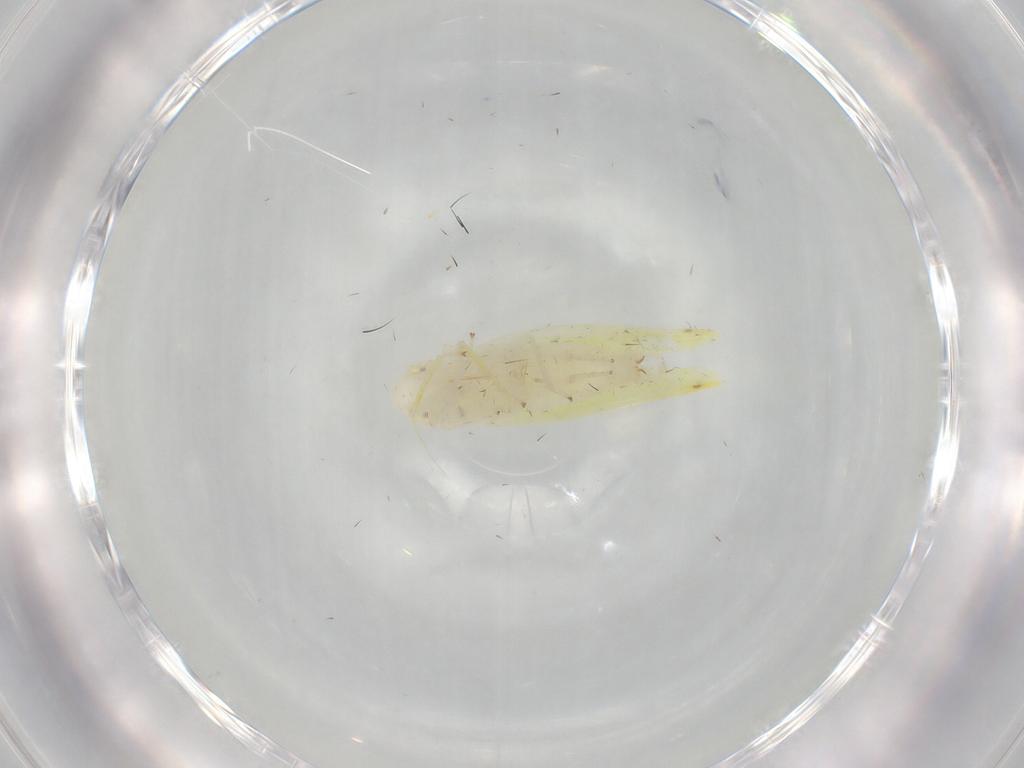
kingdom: Animalia
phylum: Arthropoda
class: Insecta
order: Hemiptera
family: Cicadellidae
